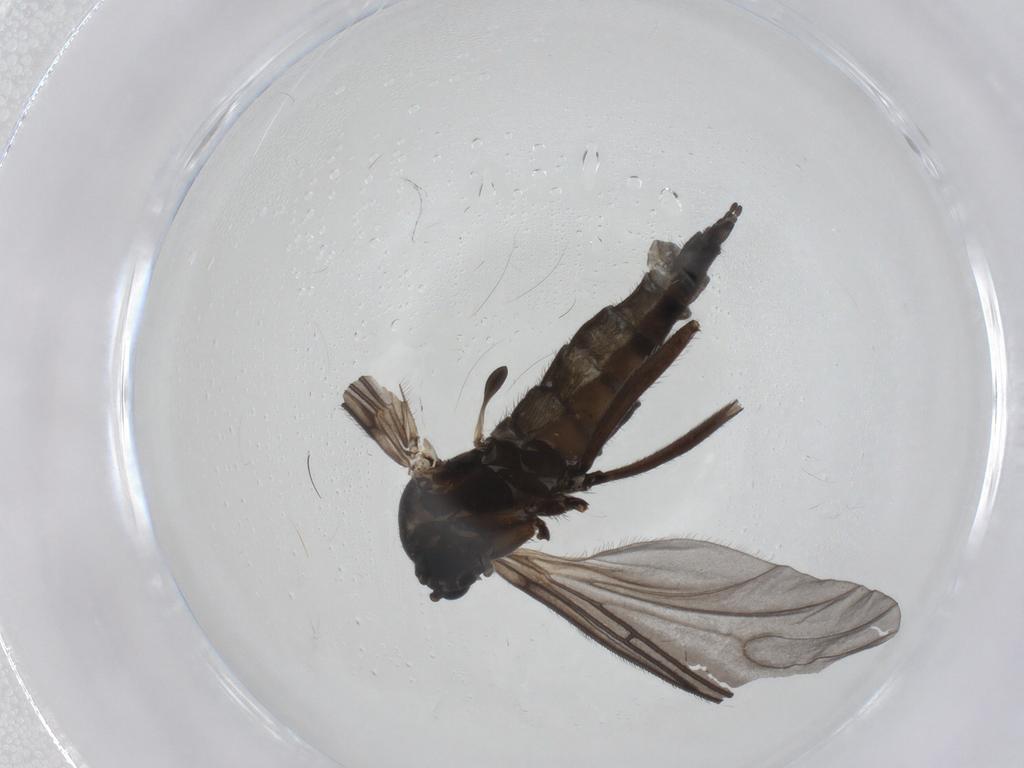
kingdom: Animalia
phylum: Arthropoda
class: Insecta
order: Diptera
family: Sciaridae
